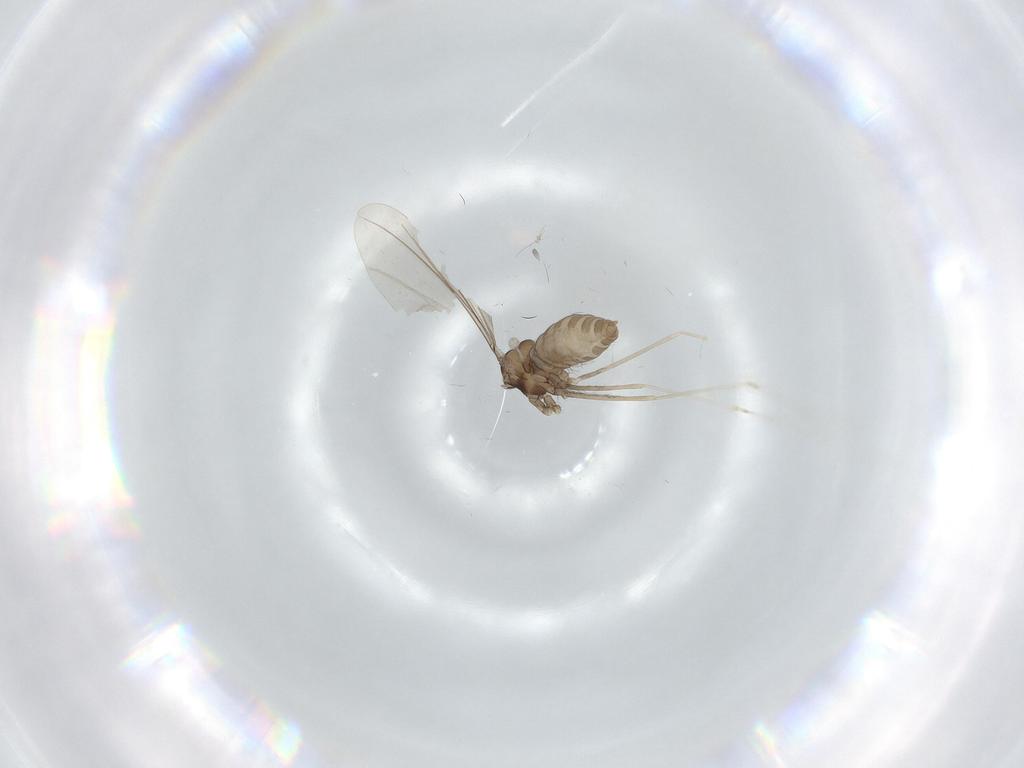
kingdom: Animalia
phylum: Arthropoda
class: Insecta
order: Diptera
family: Cecidomyiidae
